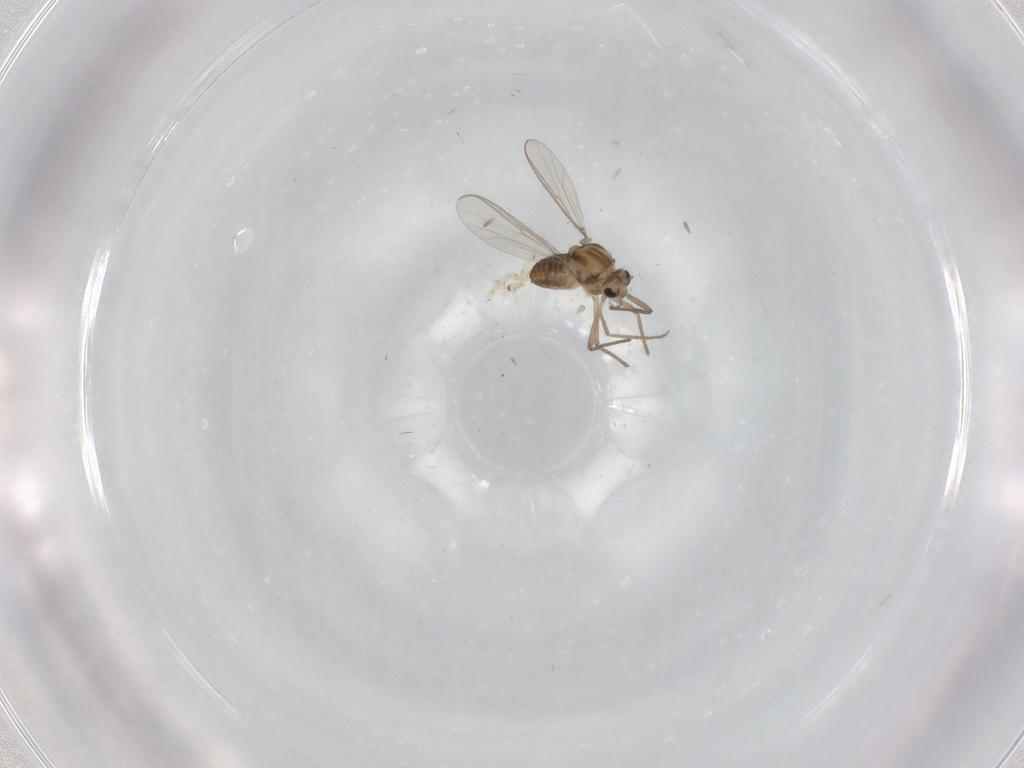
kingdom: Animalia
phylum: Arthropoda
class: Insecta
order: Diptera
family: Chironomidae
